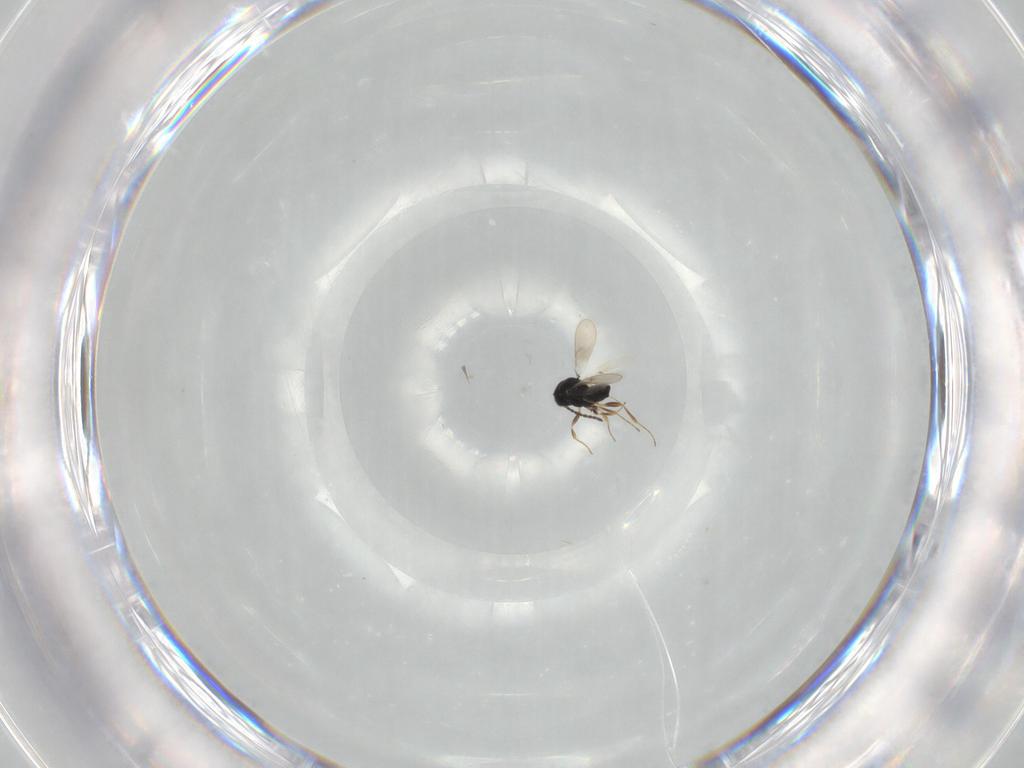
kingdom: Animalia
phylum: Arthropoda
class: Insecta
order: Hymenoptera
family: Scelionidae
